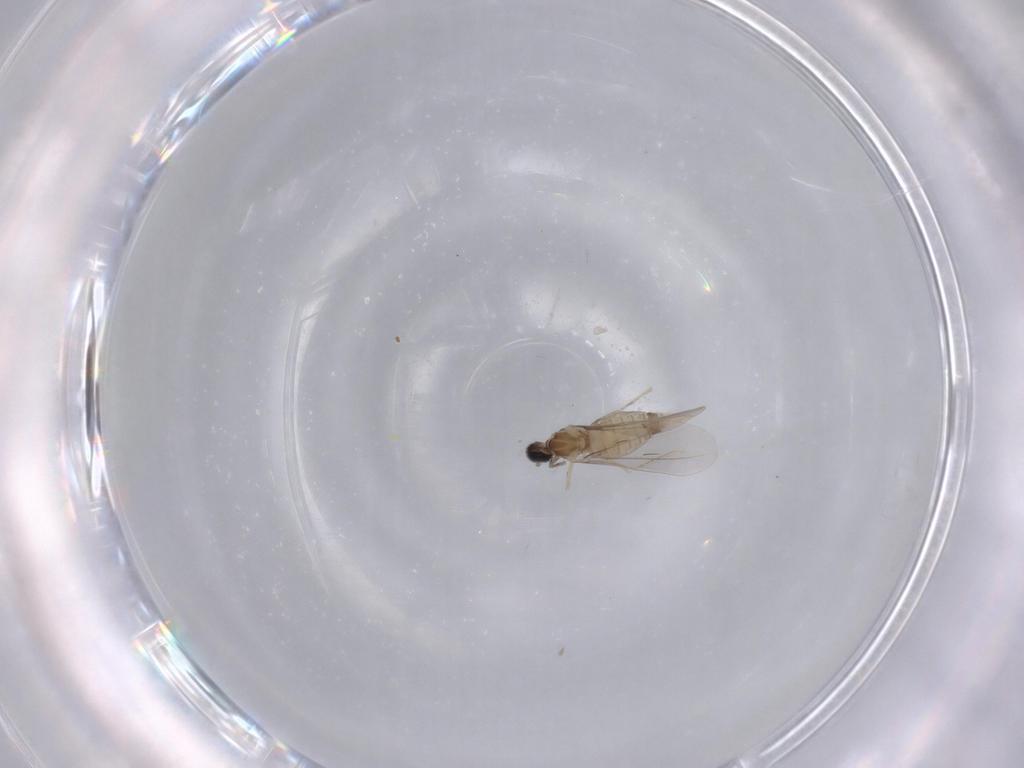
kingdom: Animalia
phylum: Arthropoda
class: Insecta
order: Diptera
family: Cecidomyiidae
